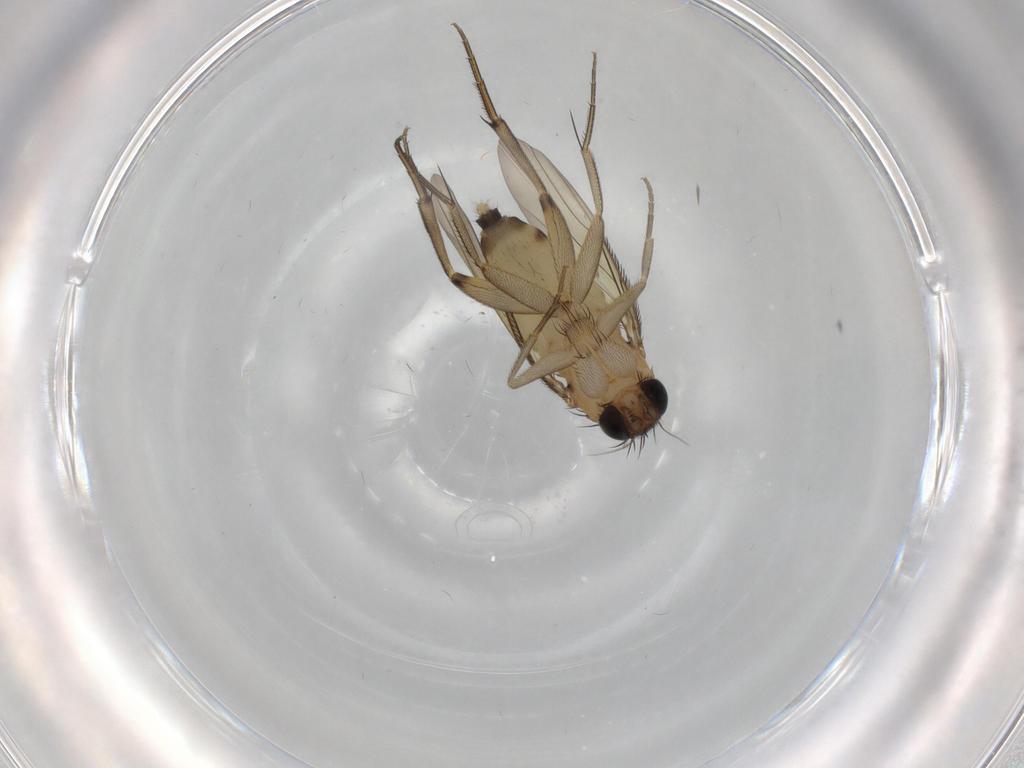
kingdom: Animalia
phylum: Arthropoda
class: Insecta
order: Diptera
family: Phoridae
